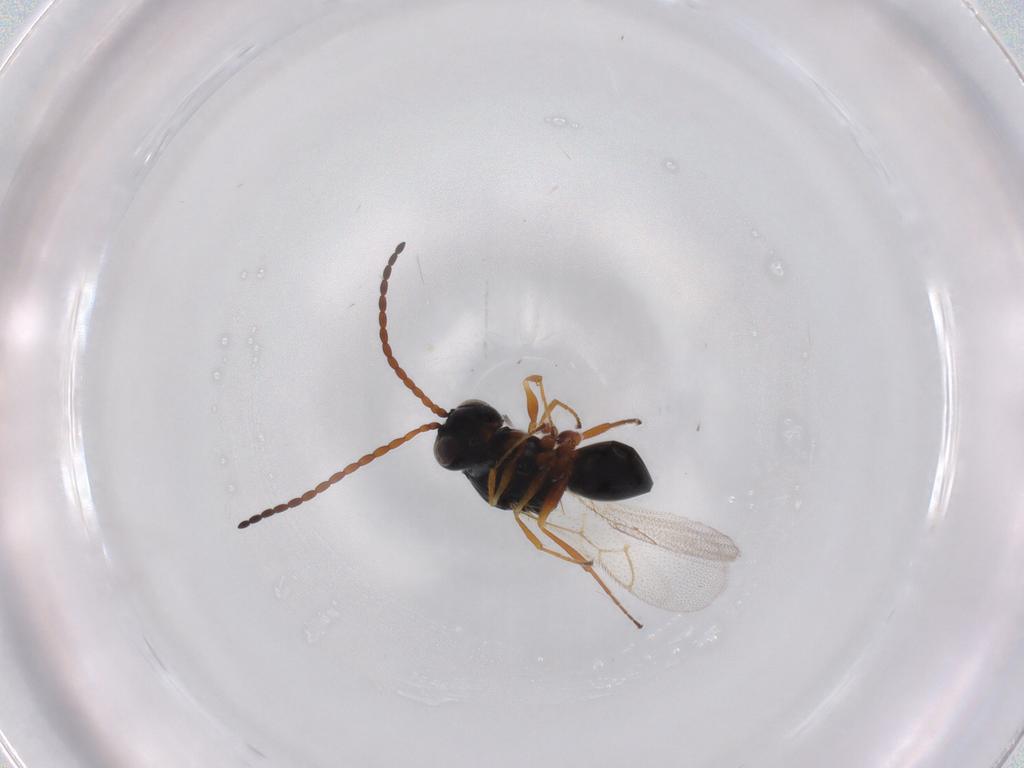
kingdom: Animalia
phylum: Arthropoda
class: Insecta
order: Hymenoptera
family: Figitidae
